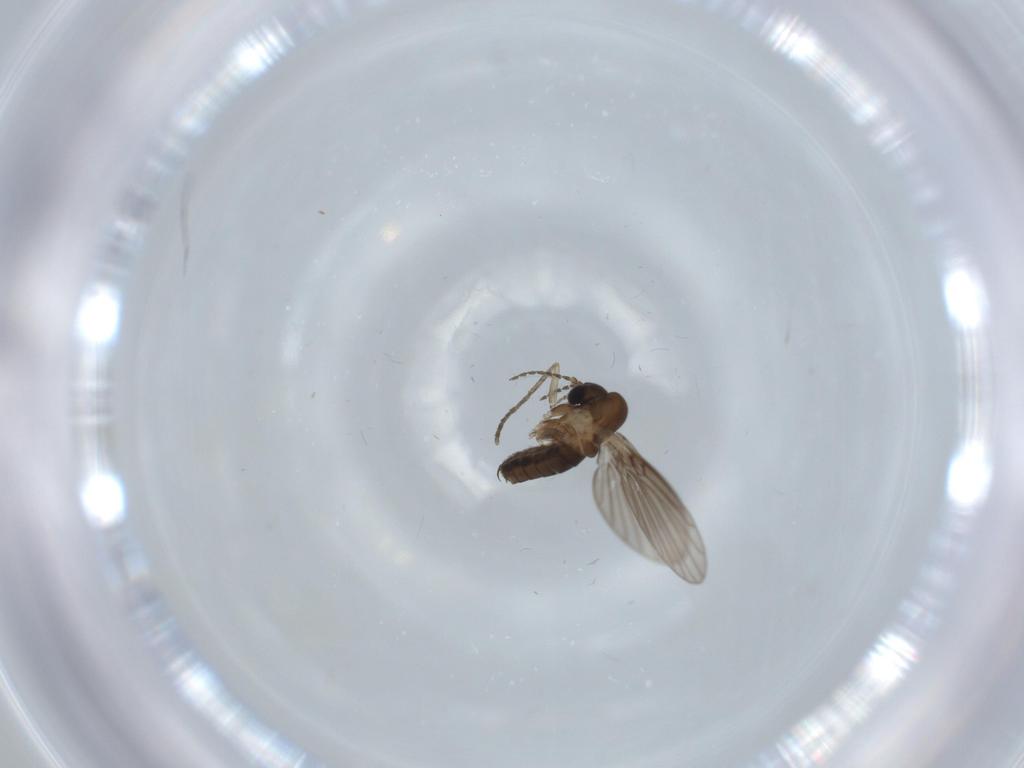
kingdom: Animalia
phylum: Arthropoda
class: Insecta
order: Diptera
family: Psychodidae
